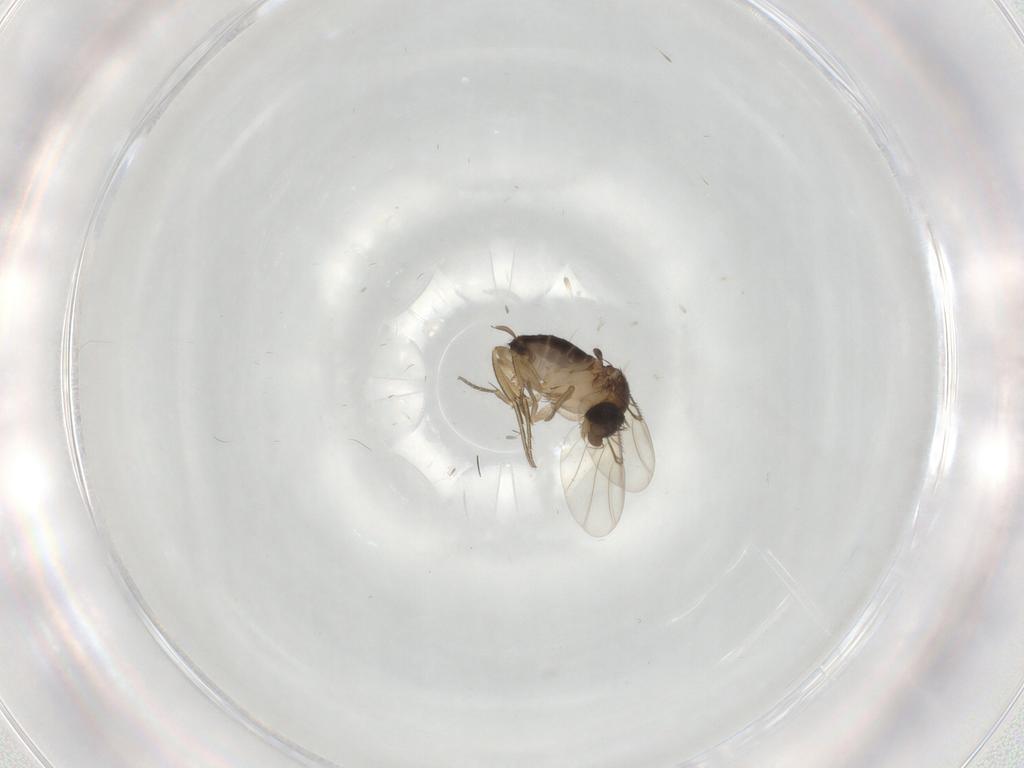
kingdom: Animalia
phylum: Arthropoda
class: Insecta
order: Diptera
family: Phoridae
